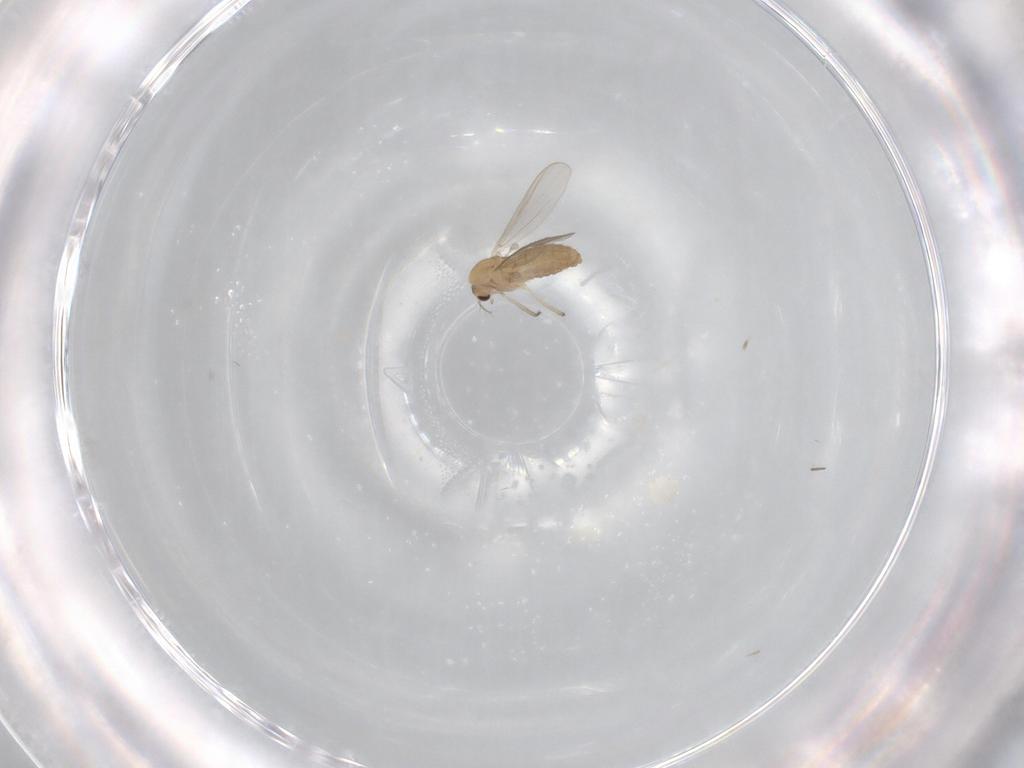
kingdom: Animalia
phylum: Arthropoda
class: Insecta
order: Diptera
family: Chironomidae
